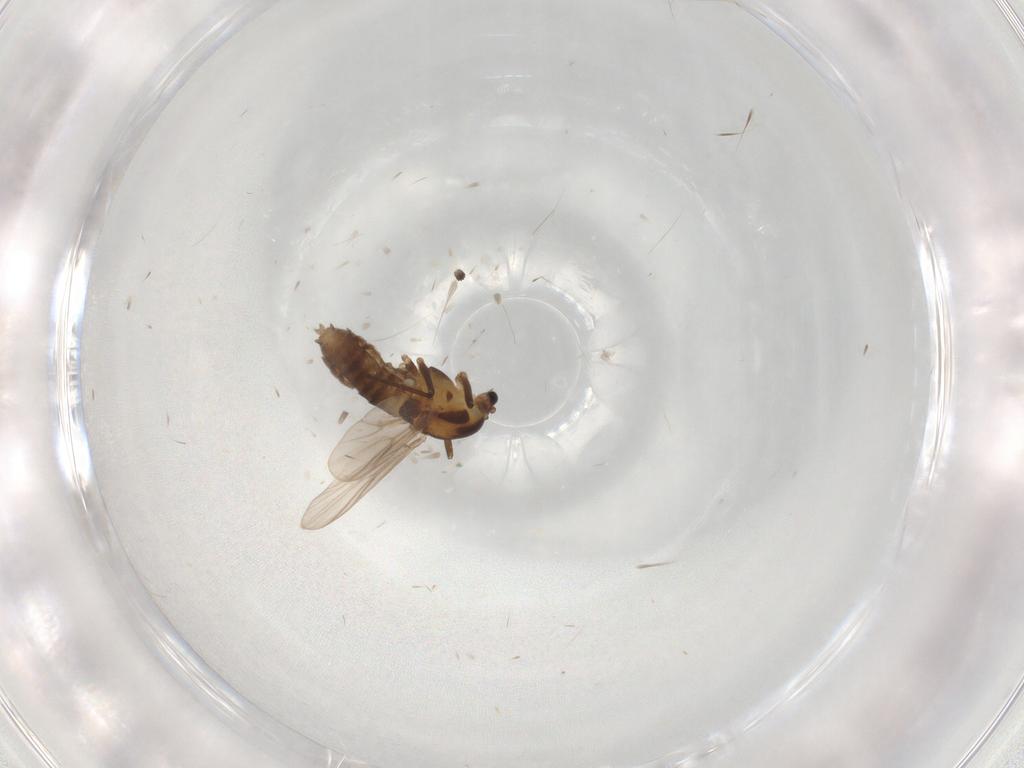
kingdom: Animalia
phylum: Arthropoda
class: Insecta
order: Diptera
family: Chironomidae
